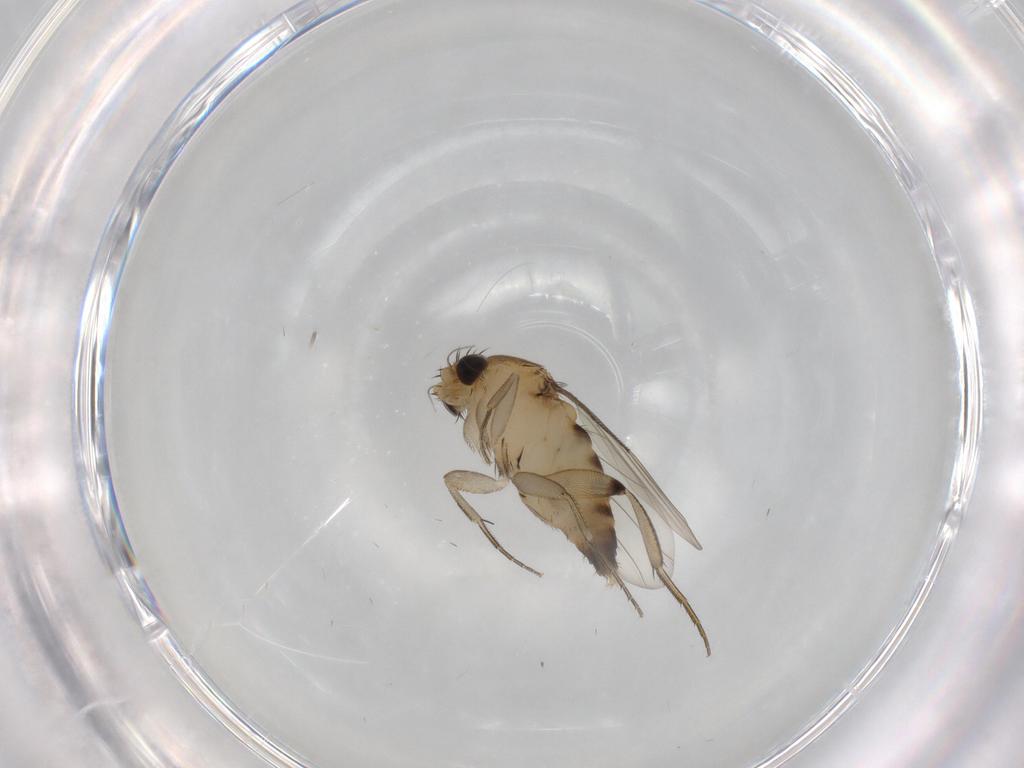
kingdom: Animalia
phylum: Arthropoda
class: Insecta
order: Diptera
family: Phoridae
